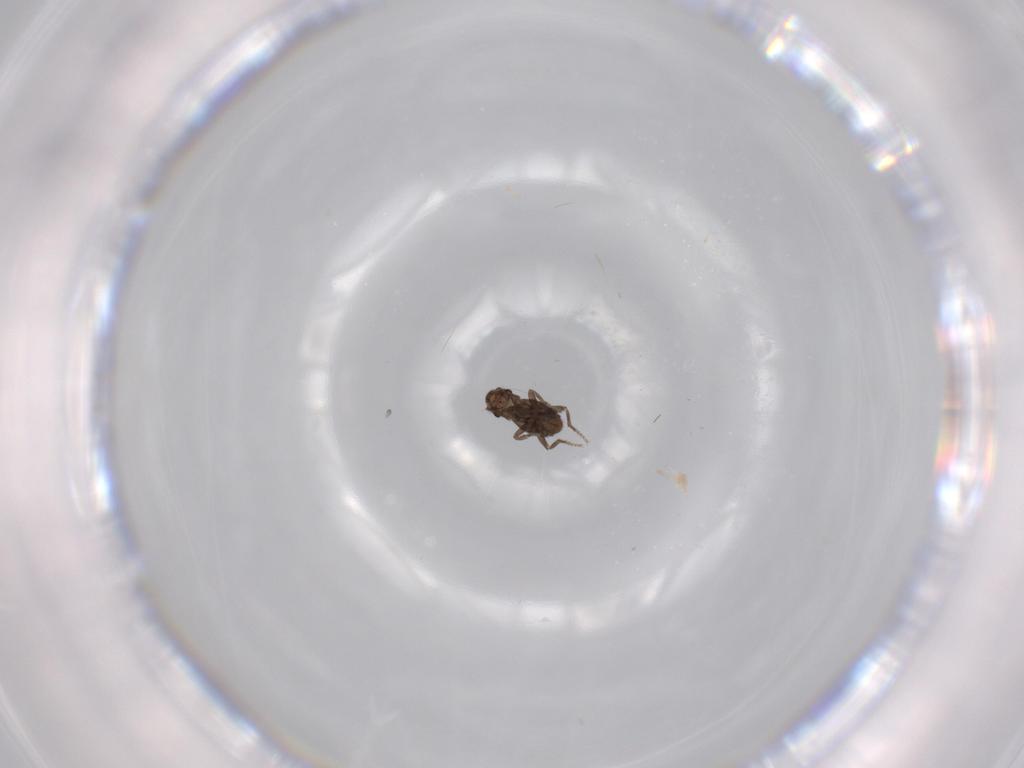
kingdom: Animalia
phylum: Arthropoda
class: Insecta
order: Diptera
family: Phoridae
